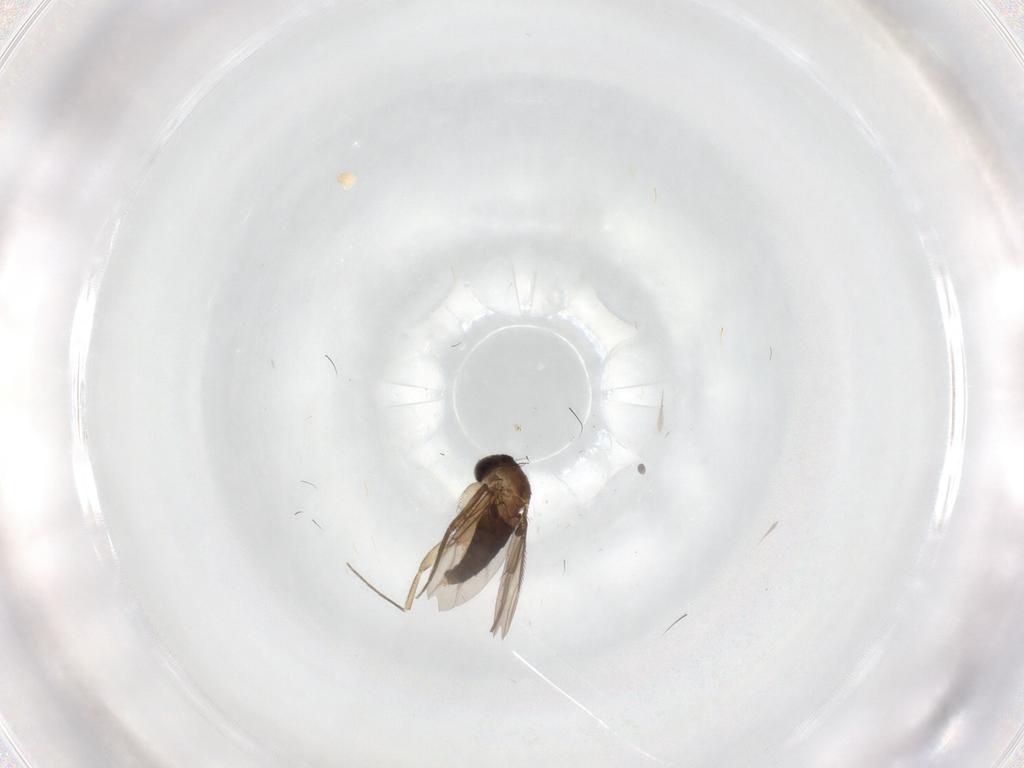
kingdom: Animalia
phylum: Arthropoda
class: Insecta
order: Diptera
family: Phoridae
